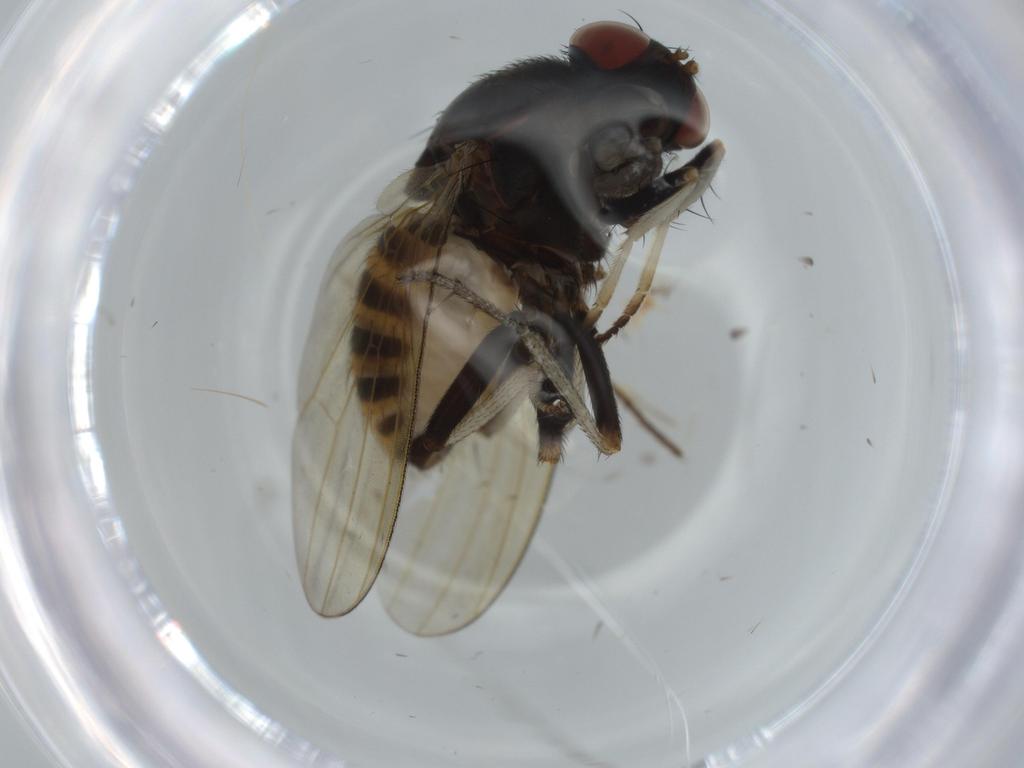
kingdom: Animalia
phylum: Arthropoda
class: Insecta
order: Diptera
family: Ceratopogonidae
